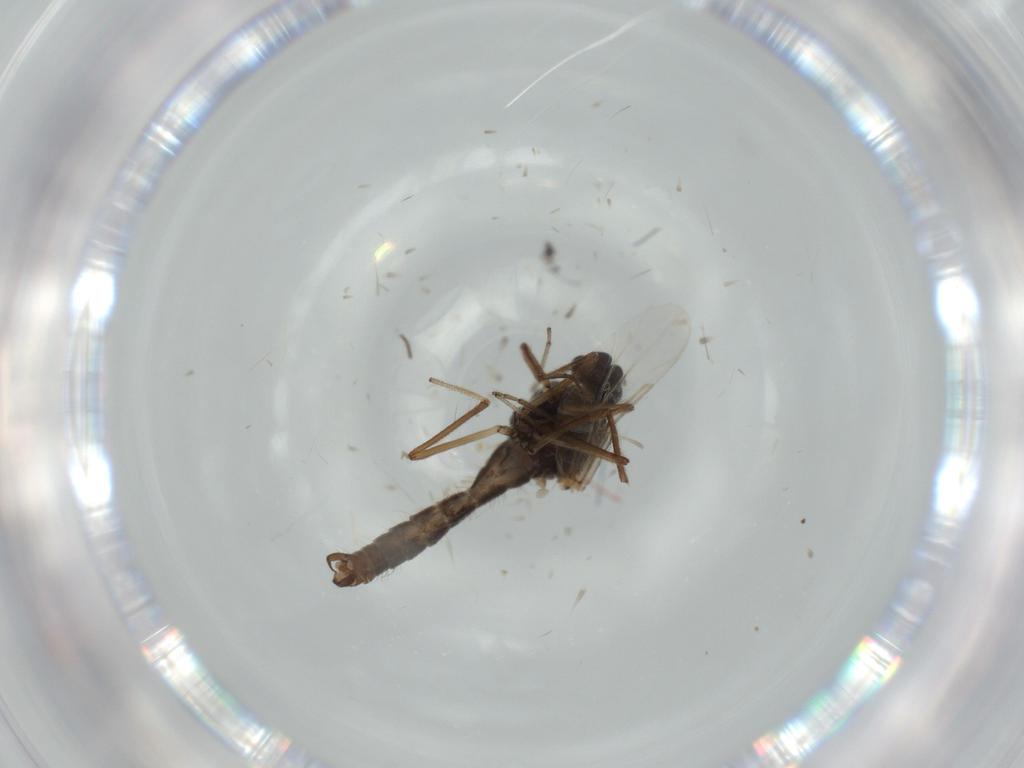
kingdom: Animalia
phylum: Arthropoda
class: Insecta
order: Diptera
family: Ceratopogonidae
